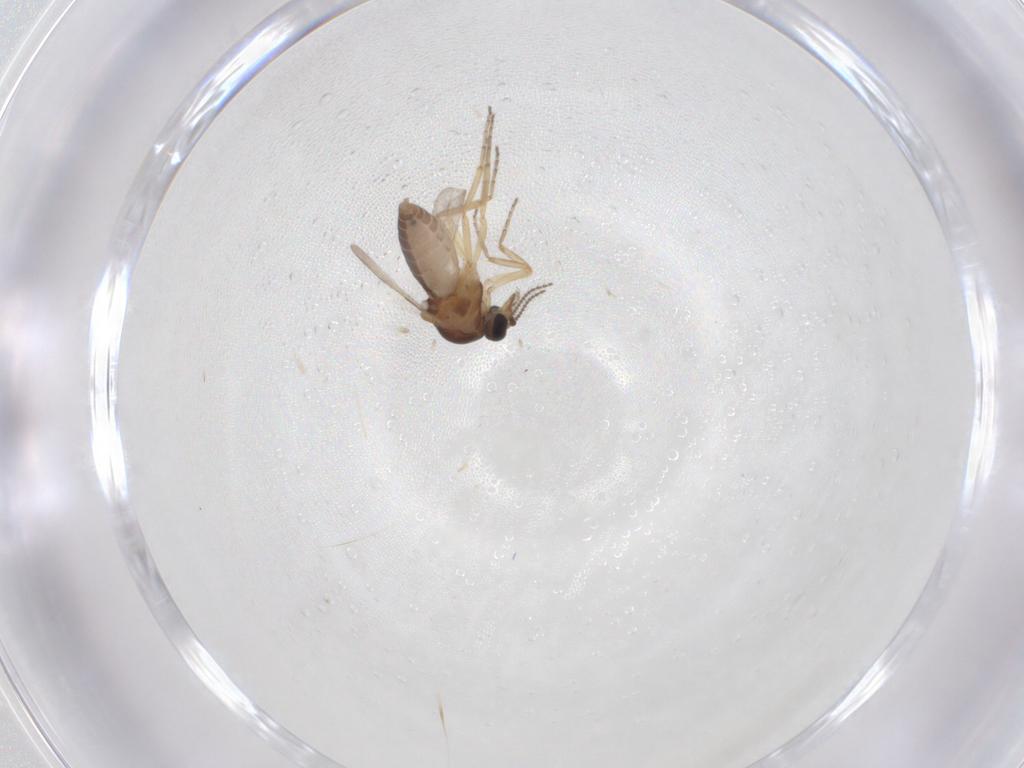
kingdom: Animalia
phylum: Arthropoda
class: Insecta
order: Diptera
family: Ceratopogonidae
